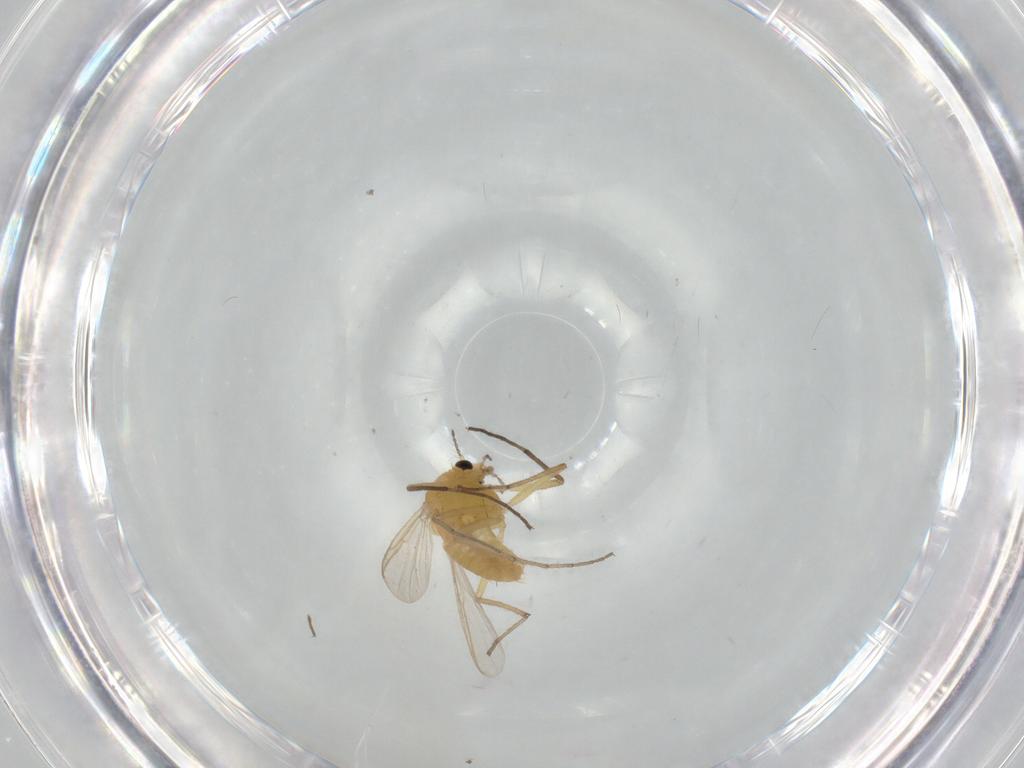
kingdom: Animalia
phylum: Arthropoda
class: Insecta
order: Diptera
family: Chironomidae
